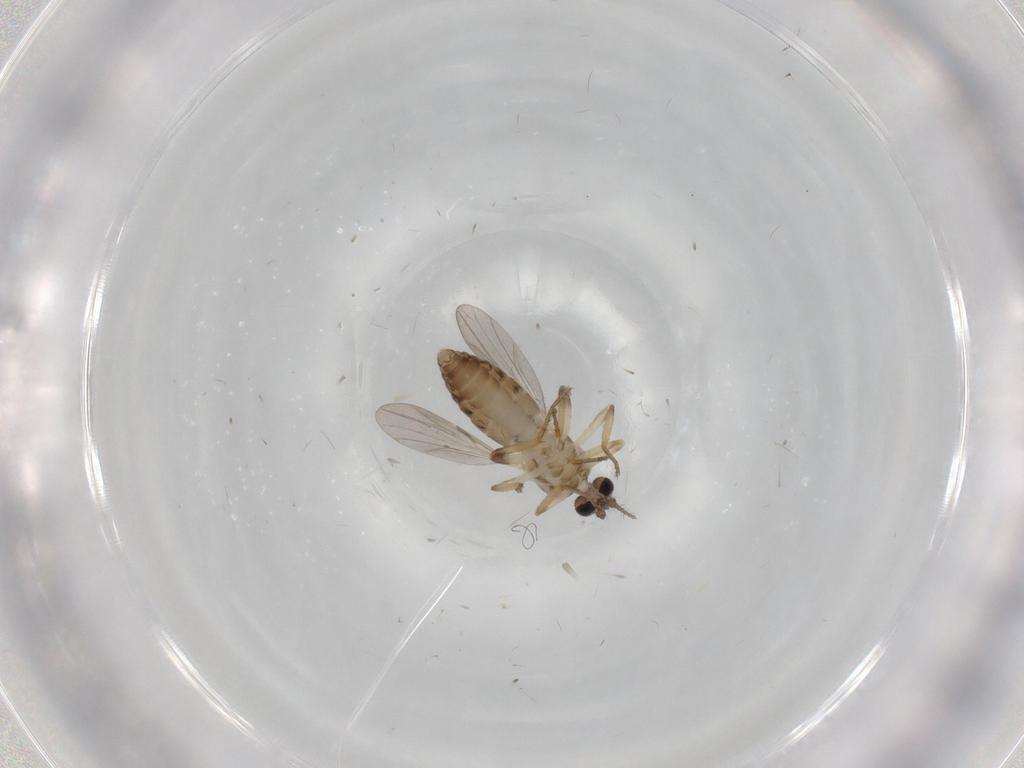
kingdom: Animalia
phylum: Arthropoda
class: Insecta
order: Diptera
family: Ceratopogonidae
